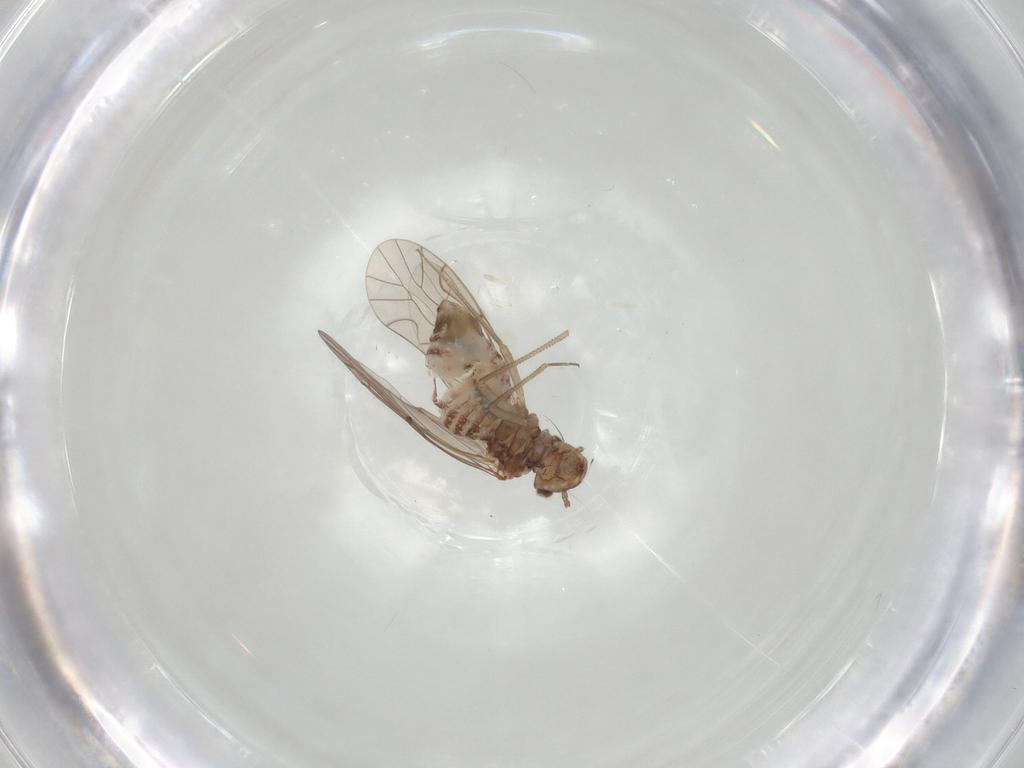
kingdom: Animalia
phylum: Arthropoda
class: Insecta
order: Psocodea
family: Lachesillidae
